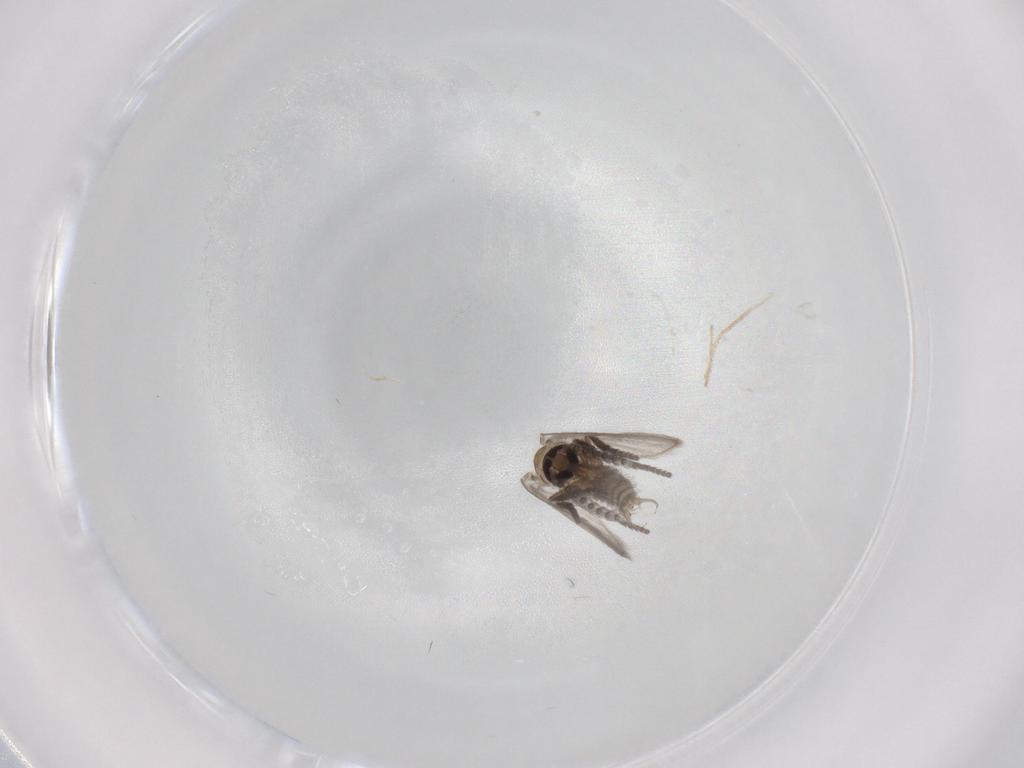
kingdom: Animalia
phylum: Arthropoda
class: Insecta
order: Diptera
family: Psychodidae
